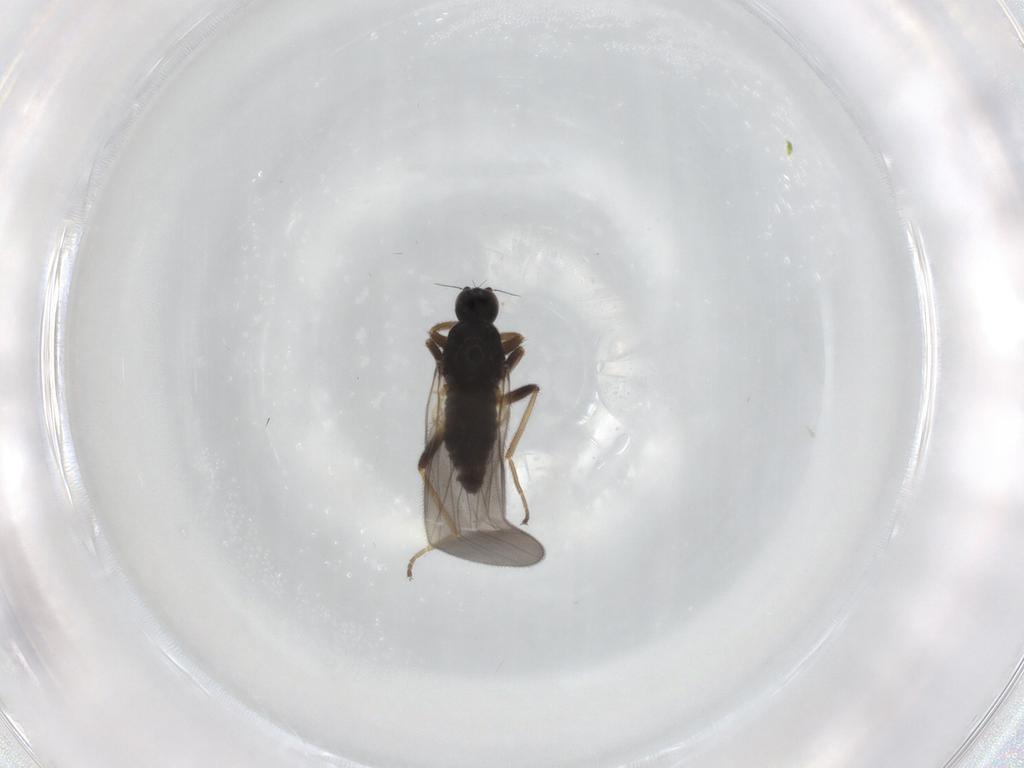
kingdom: Animalia
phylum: Arthropoda
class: Insecta
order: Diptera
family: Hybotidae
